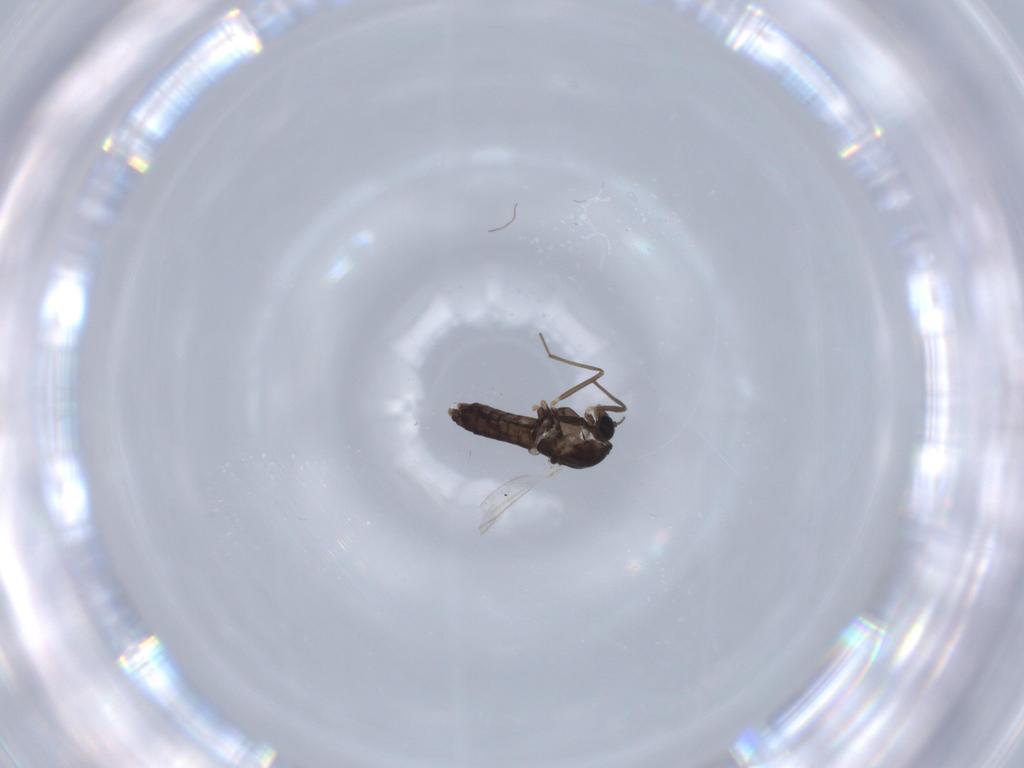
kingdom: Animalia
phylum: Arthropoda
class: Insecta
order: Diptera
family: Chironomidae
